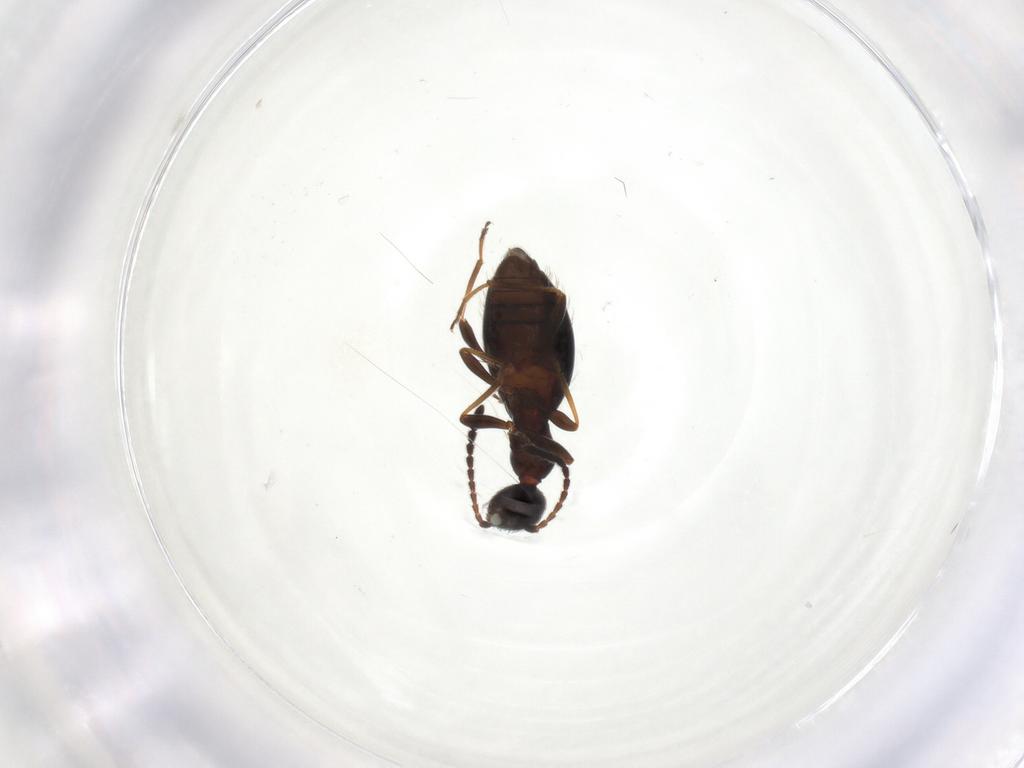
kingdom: Animalia
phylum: Arthropoda
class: Insecta
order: Coleoptera
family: Anthicidae
